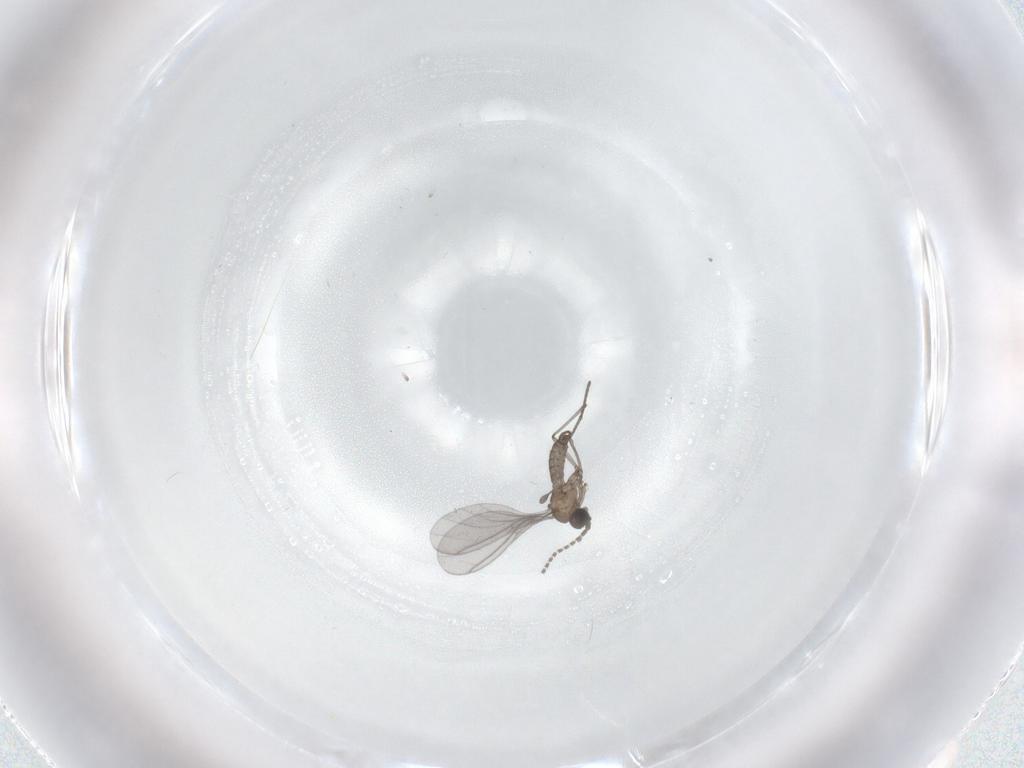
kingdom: Animalia
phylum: Arthropoda
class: Insecta
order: Diptera
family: Sciaridae
